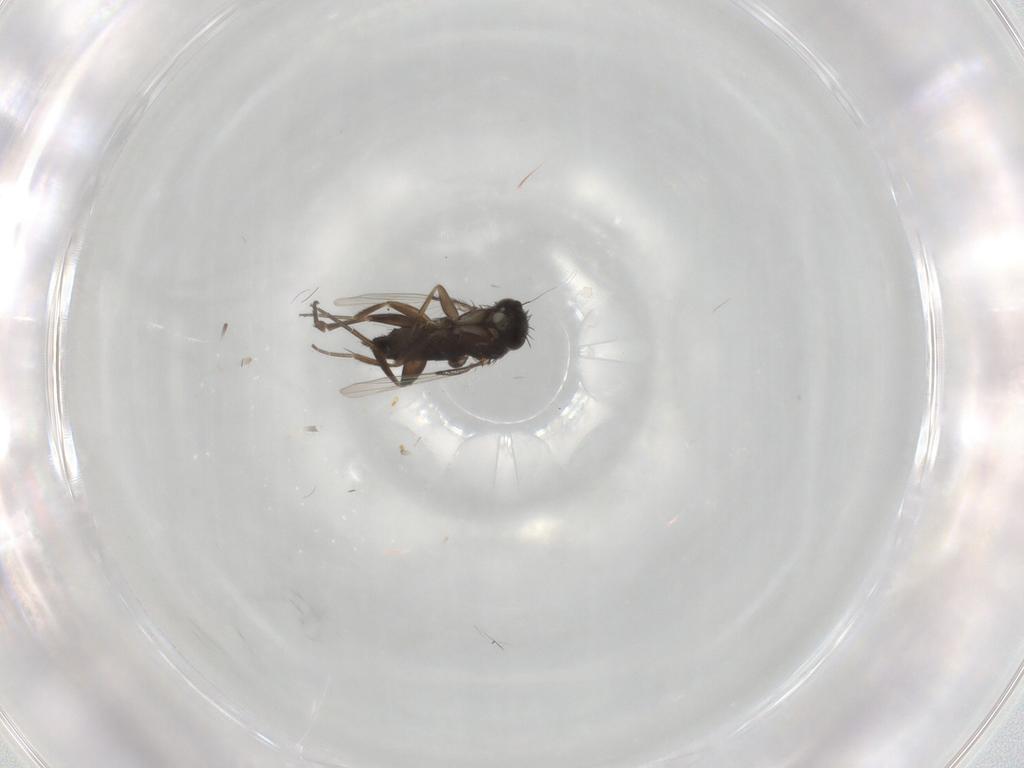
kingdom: Animalia
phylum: Arthropoda
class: Insecta
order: Diptera
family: Phoridae
